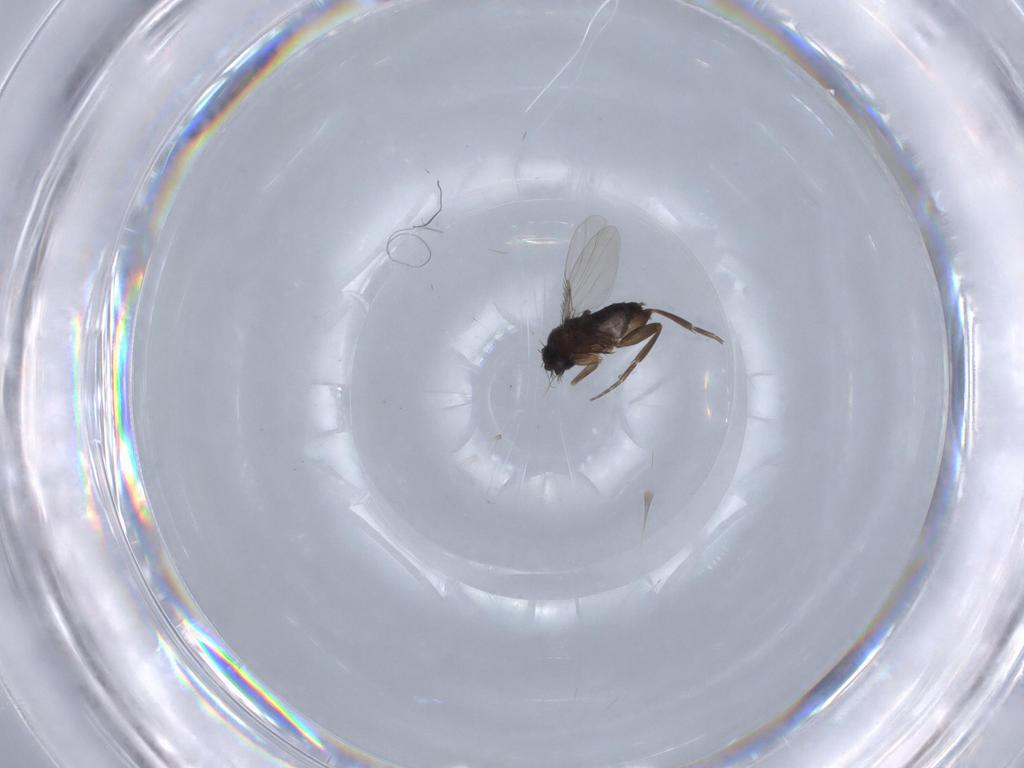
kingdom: Animalia
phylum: Arthropoda
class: Insecta
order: Diptera
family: Phoridae
